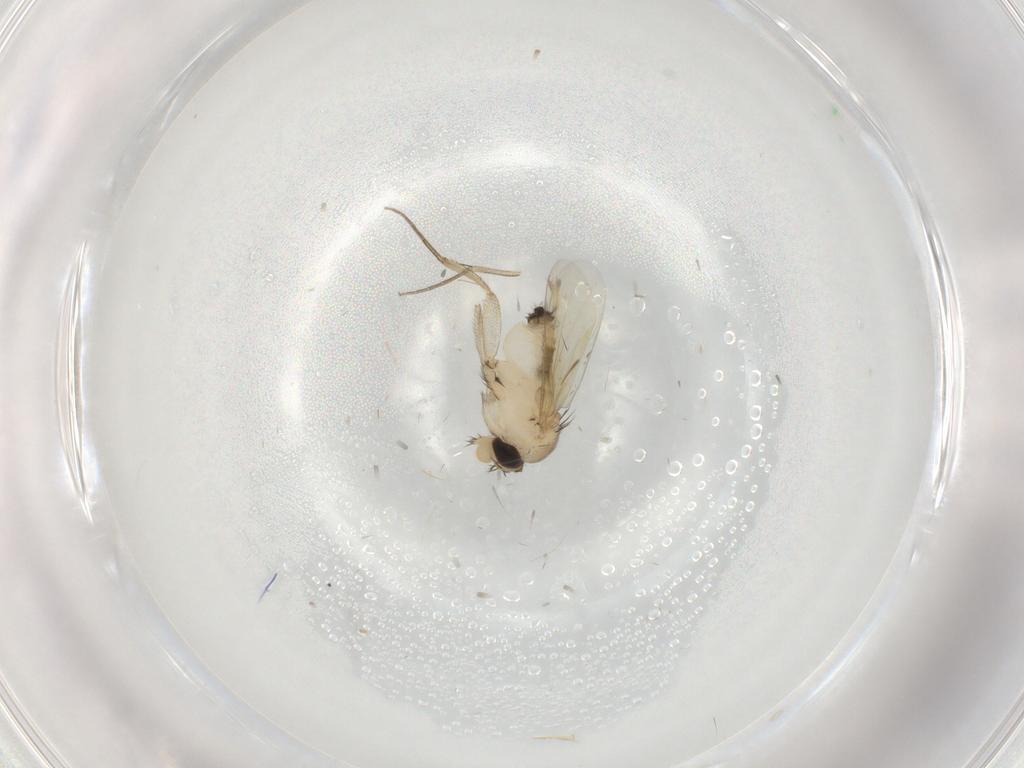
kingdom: Animalia
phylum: Arthropoda
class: Insecta
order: Diptera
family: Phoridae
